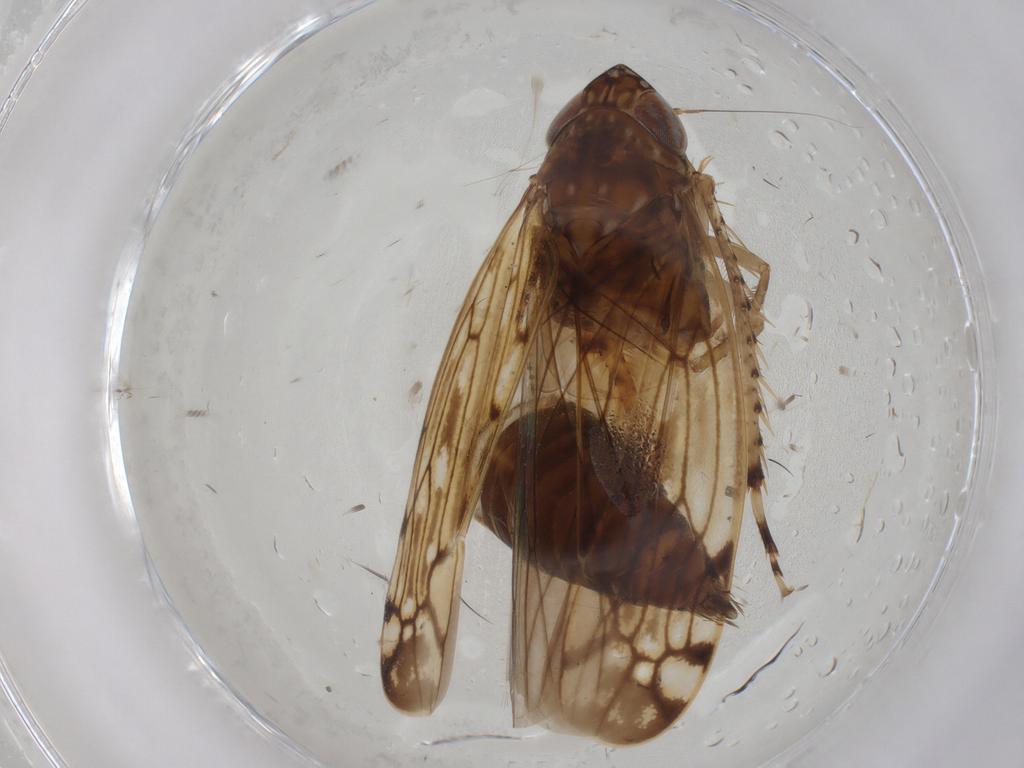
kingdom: Animalia
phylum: Arthropoda
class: Insecta
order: Hemiptera
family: Cicadellidae
